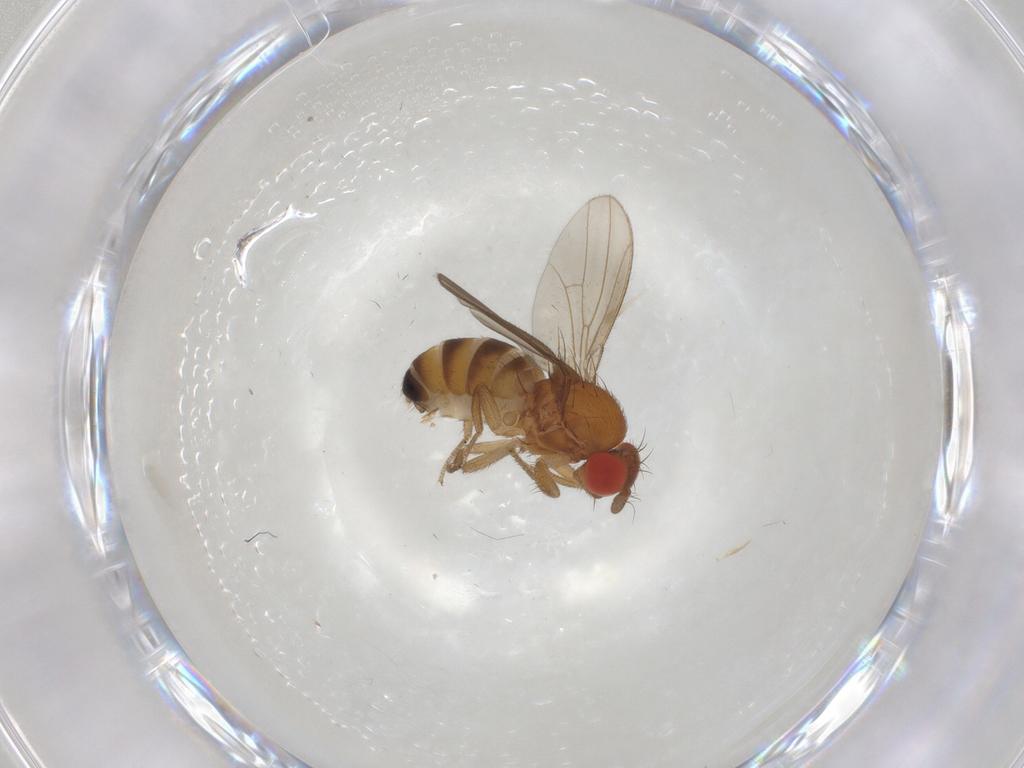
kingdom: Animalia
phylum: Arthropoda
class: Insecta
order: Diptera
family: Drosophilidae
